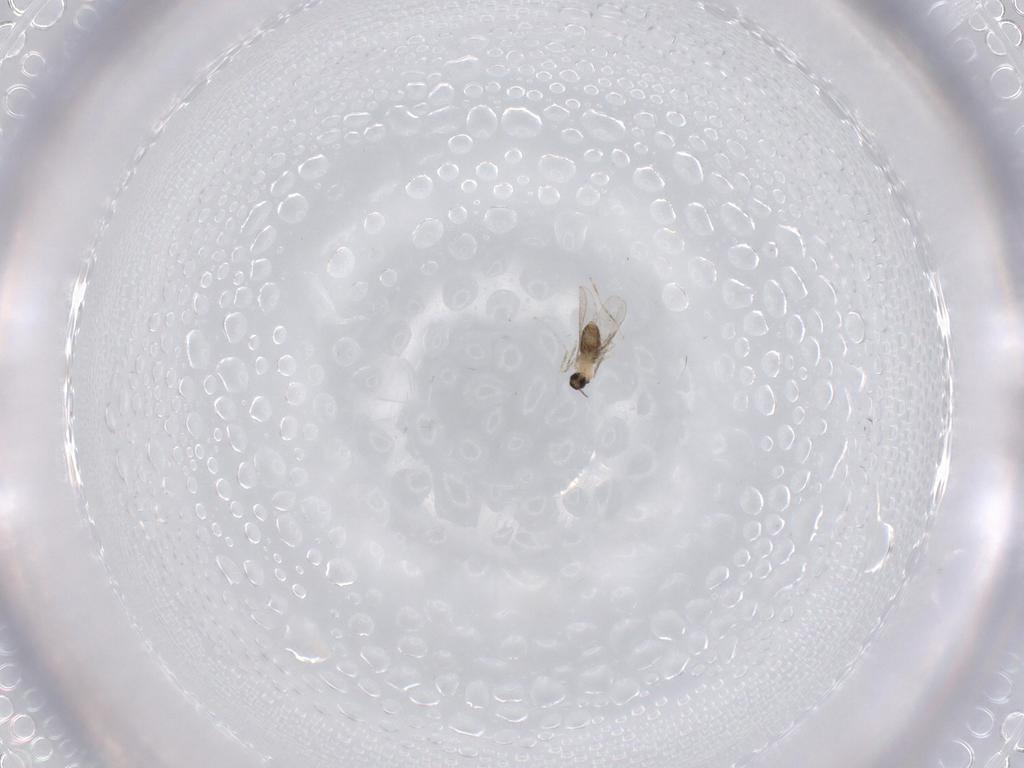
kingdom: Animalia
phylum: Arthropoda
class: Insecta
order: Diptera
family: Cecidomyiidae
